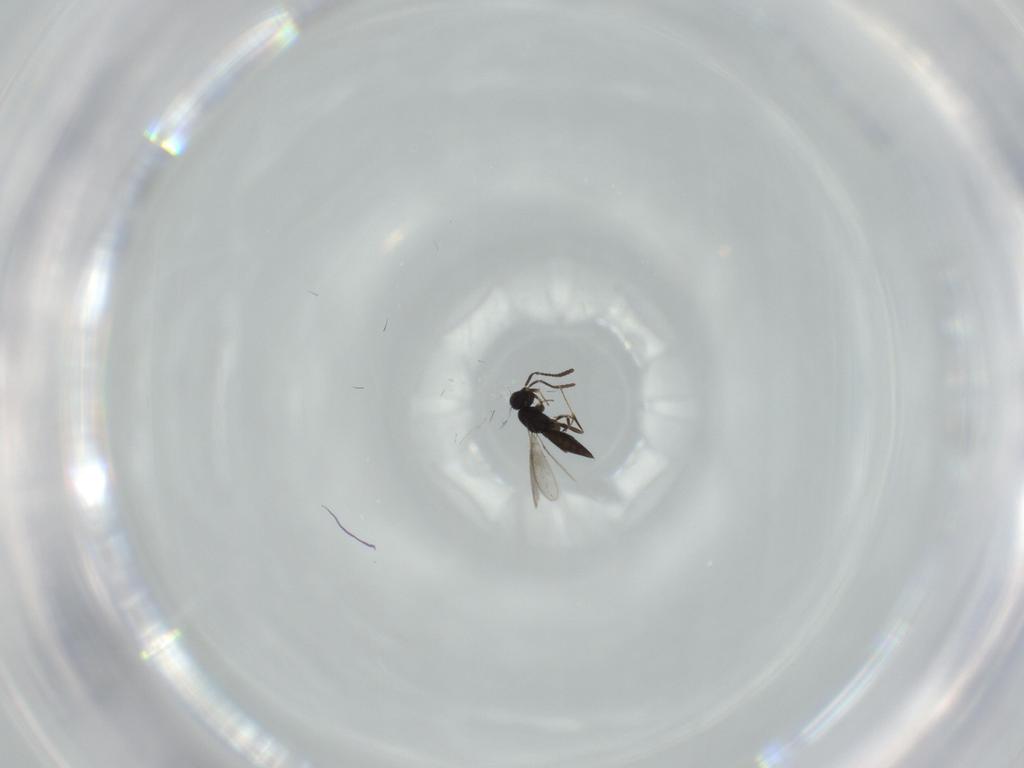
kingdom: Animalia
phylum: Arthropoda
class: Insecta
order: Hymenoptera
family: Scelionidae
